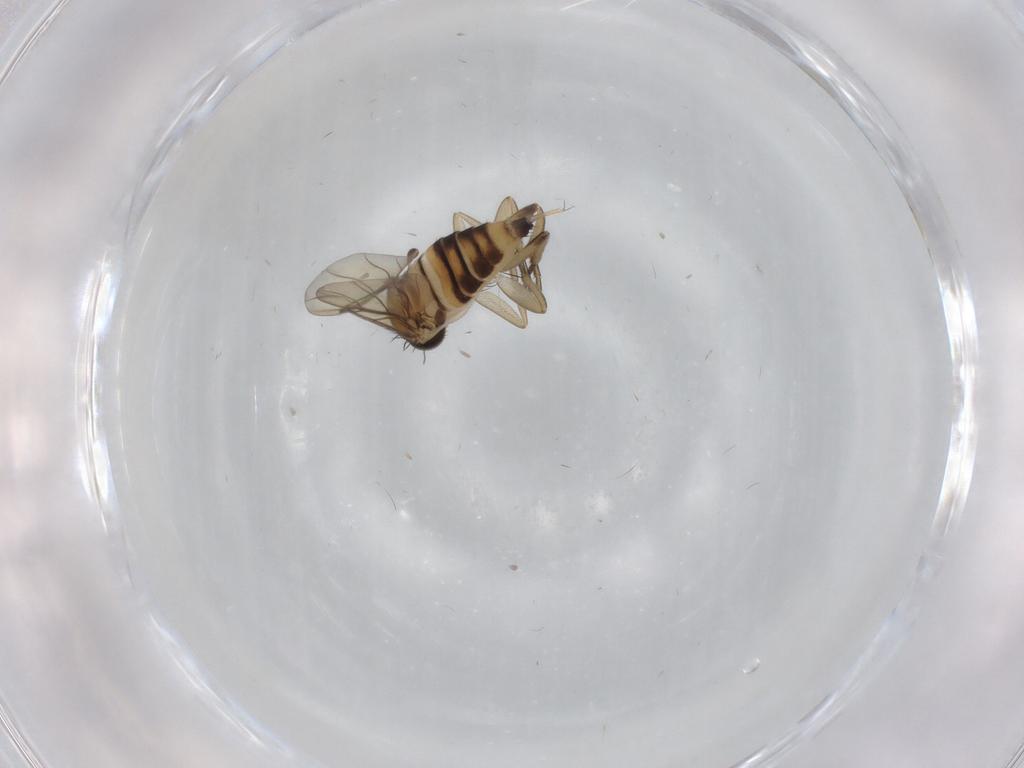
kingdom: Animalia
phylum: Arthropoda
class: Insecta
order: Diptera
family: Phoridae
